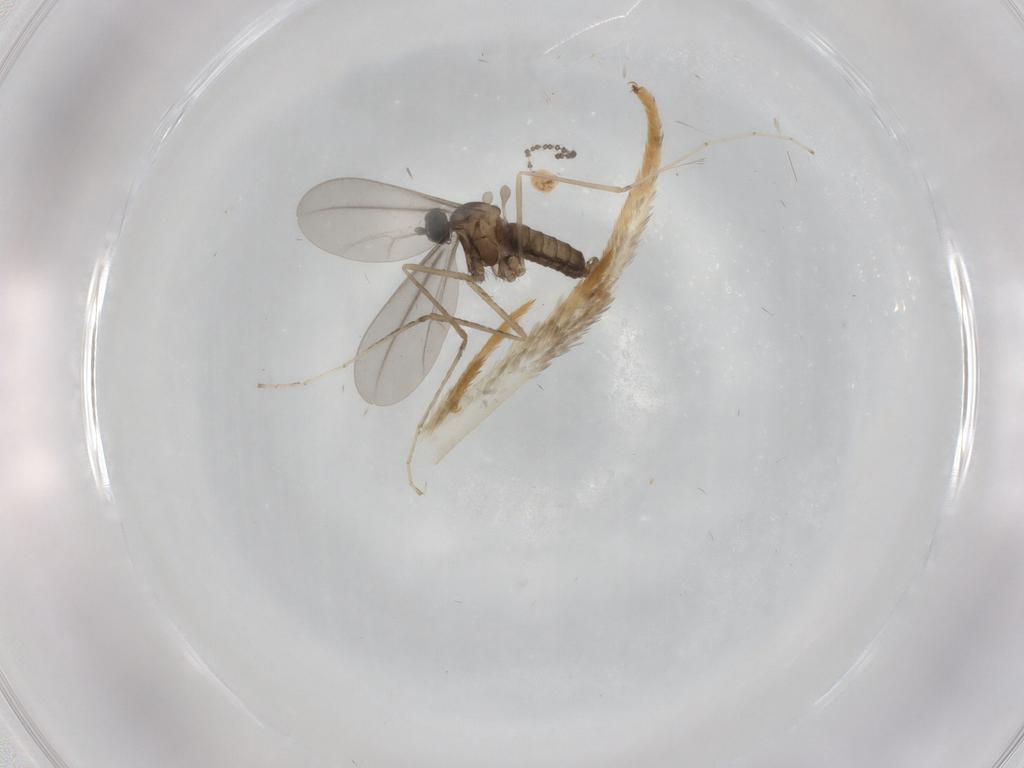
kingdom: Animalia
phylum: Arthropoda
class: Insecta
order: Diptera
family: Cecidomyiidae
